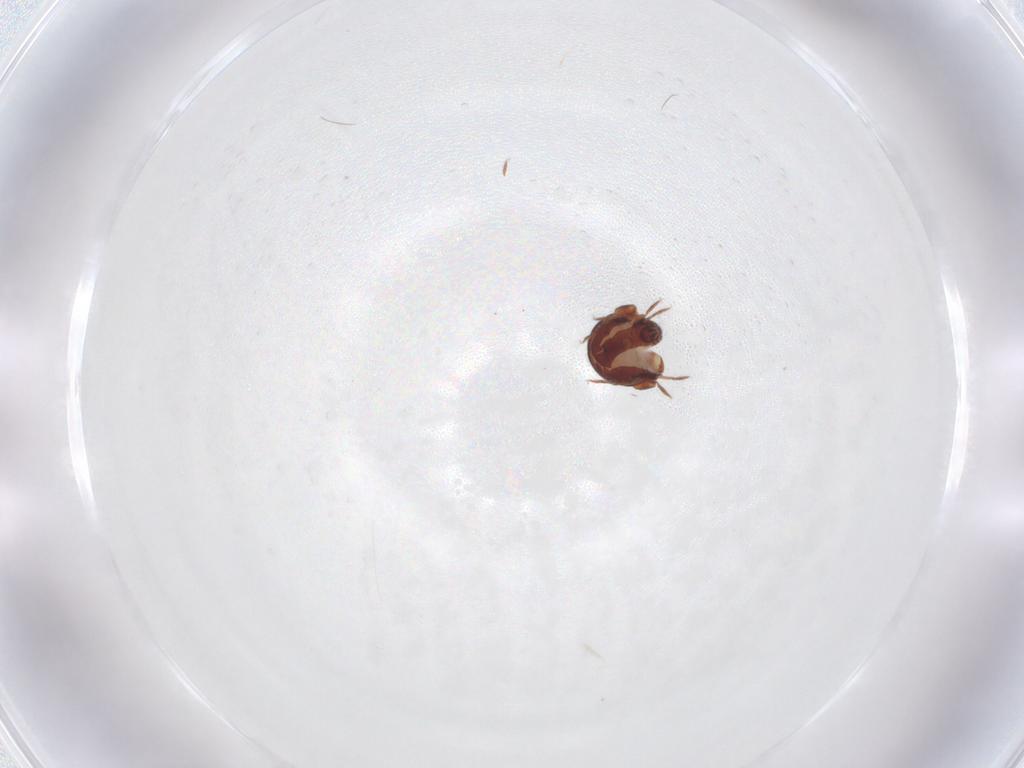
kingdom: Animalia
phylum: Arthropoda
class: Arachnida
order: Sarcoptiformes
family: Humerobatidae
